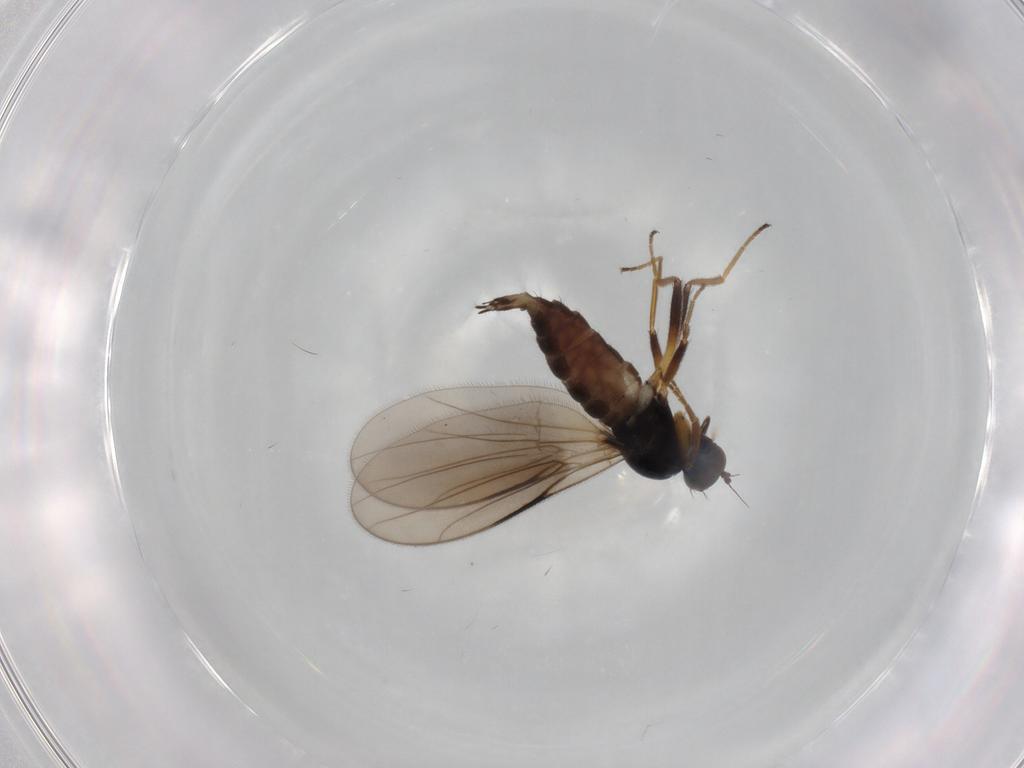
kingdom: Animalia
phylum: Arthropoda
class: Insecta
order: Diptera
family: Hybotidae
